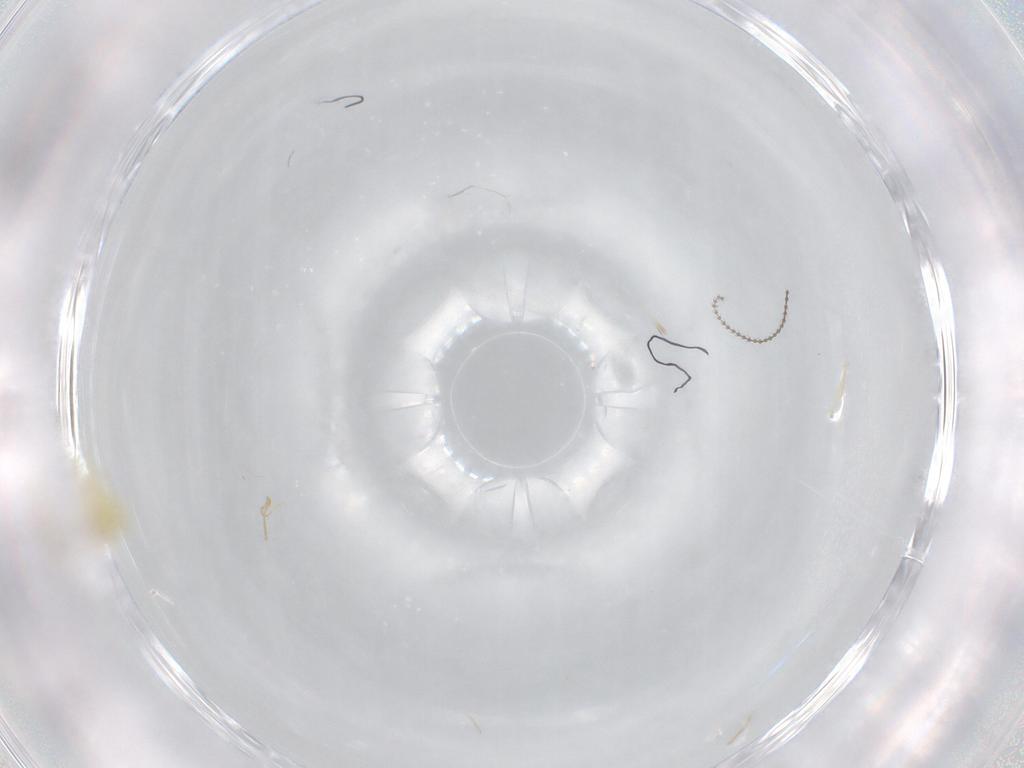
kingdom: Animalia
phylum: Arthropoda
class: Insecta
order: Hemiptera
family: Aleyrodidae
